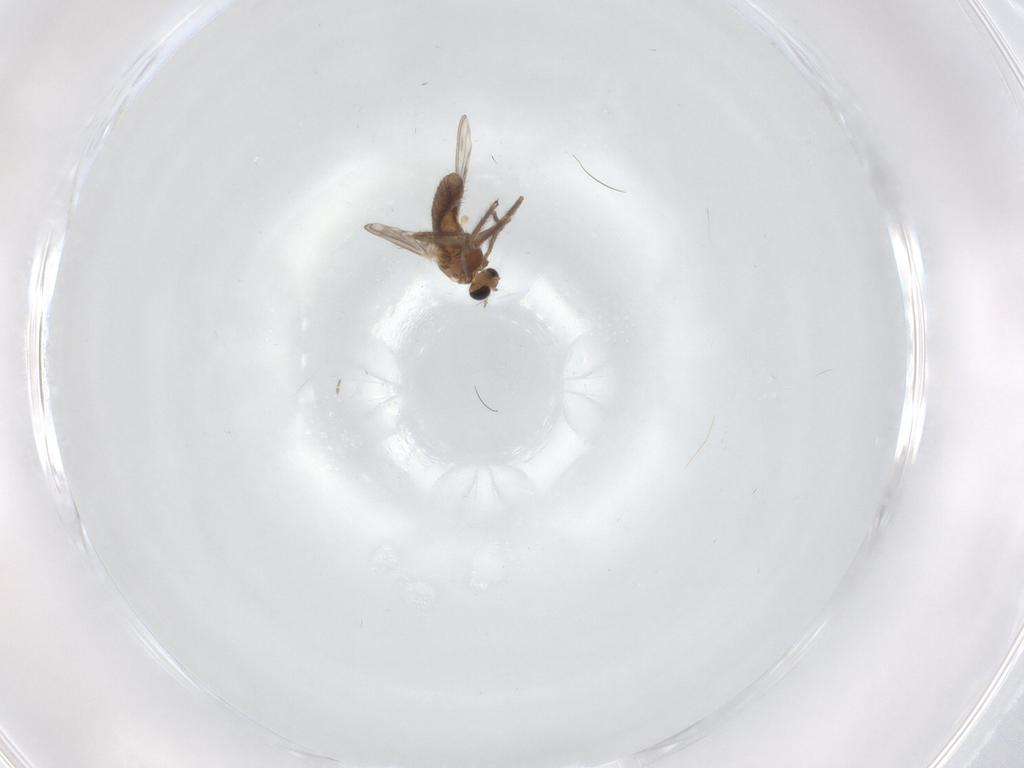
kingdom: Animalia
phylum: Arthropoda
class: Insecta
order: Diptera
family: Chironomidae
